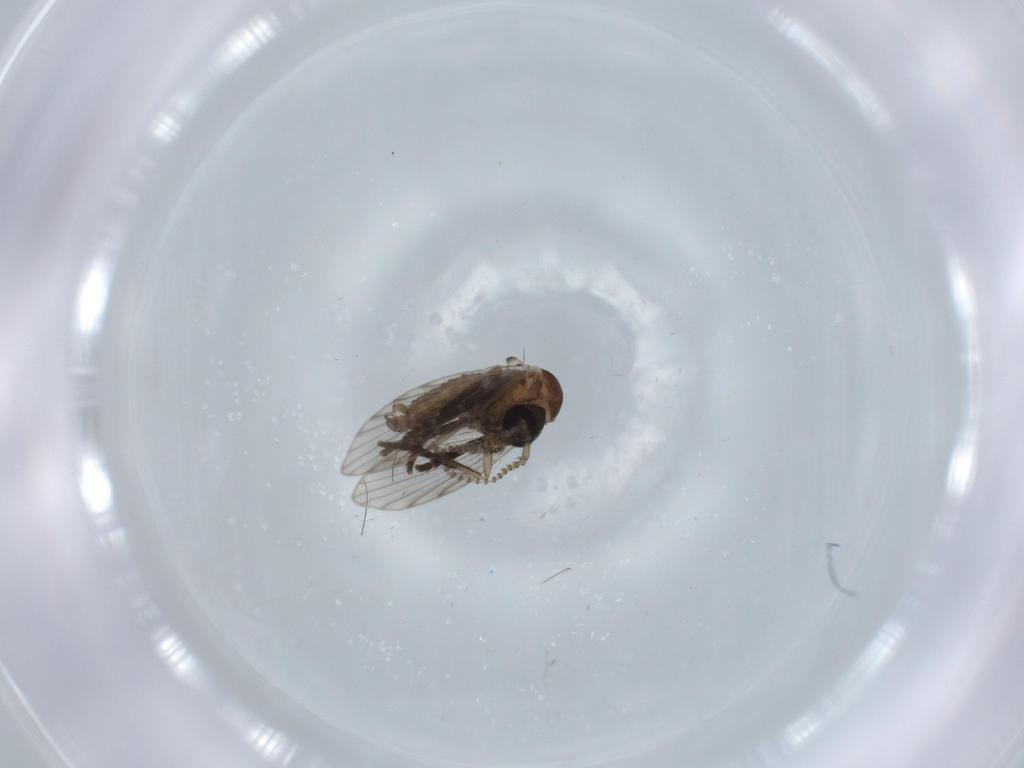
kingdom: Animalia
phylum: Arthropoda
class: Insecta
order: Diptera
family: Psychodidae
